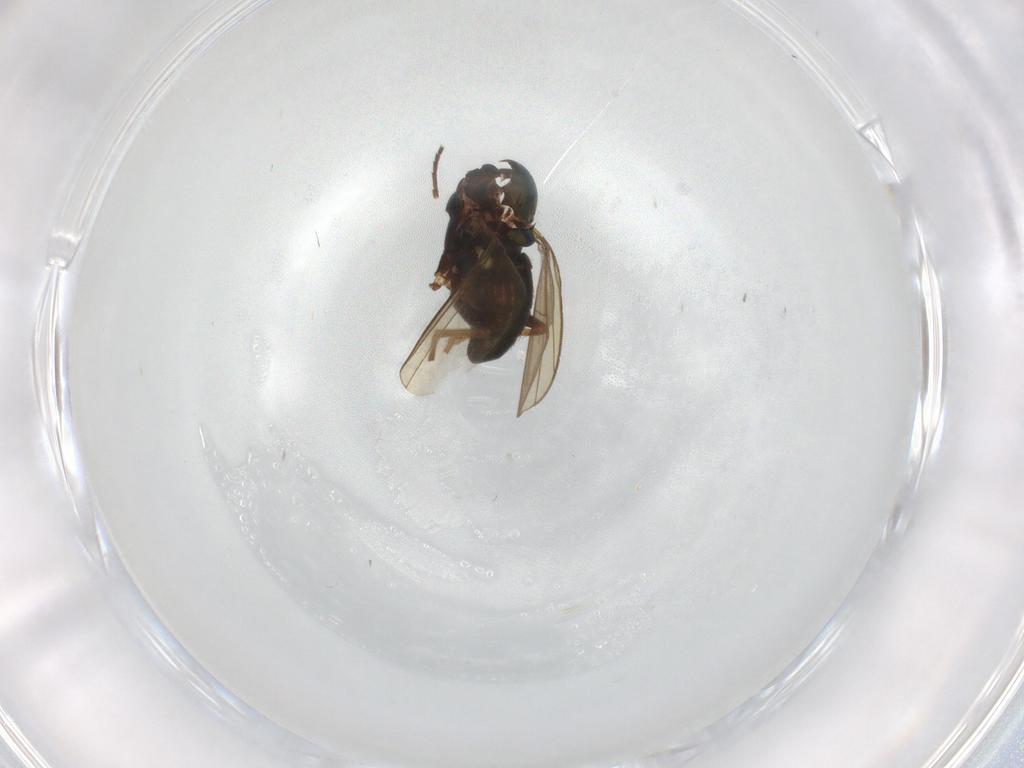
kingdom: Animalia
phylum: Arthropoda
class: Insecta
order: Diptera
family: Dolichopodidae
